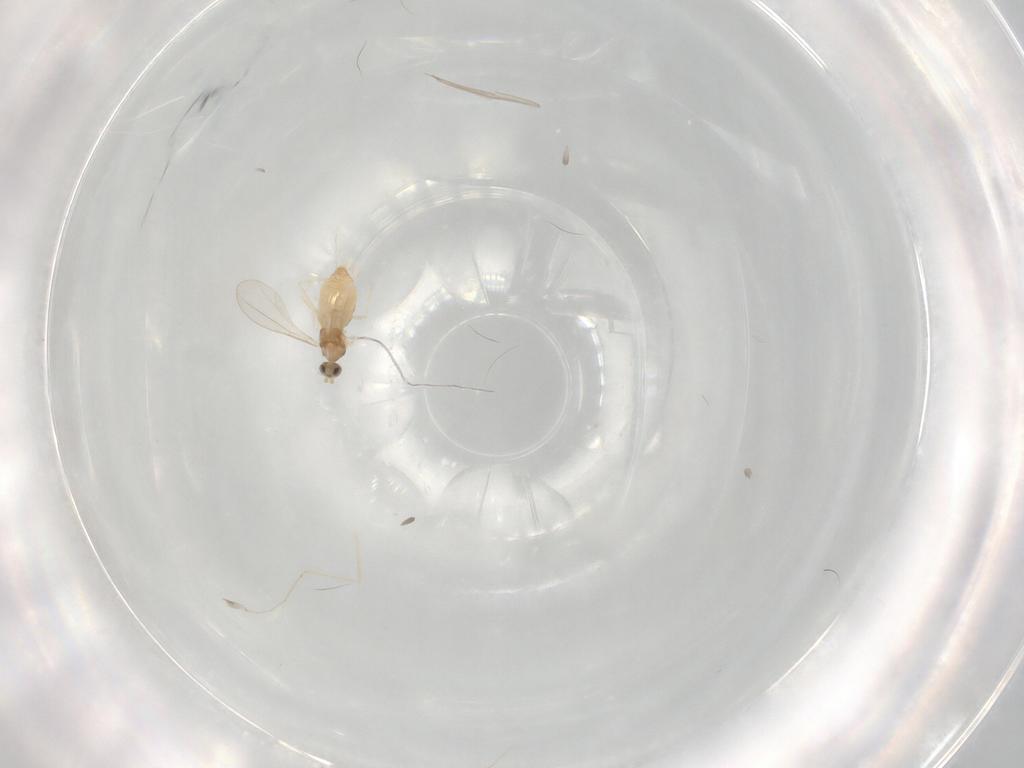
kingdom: Animalia
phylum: Arthropoda
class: Insecta
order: Diptera
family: Cecidomyiidae
